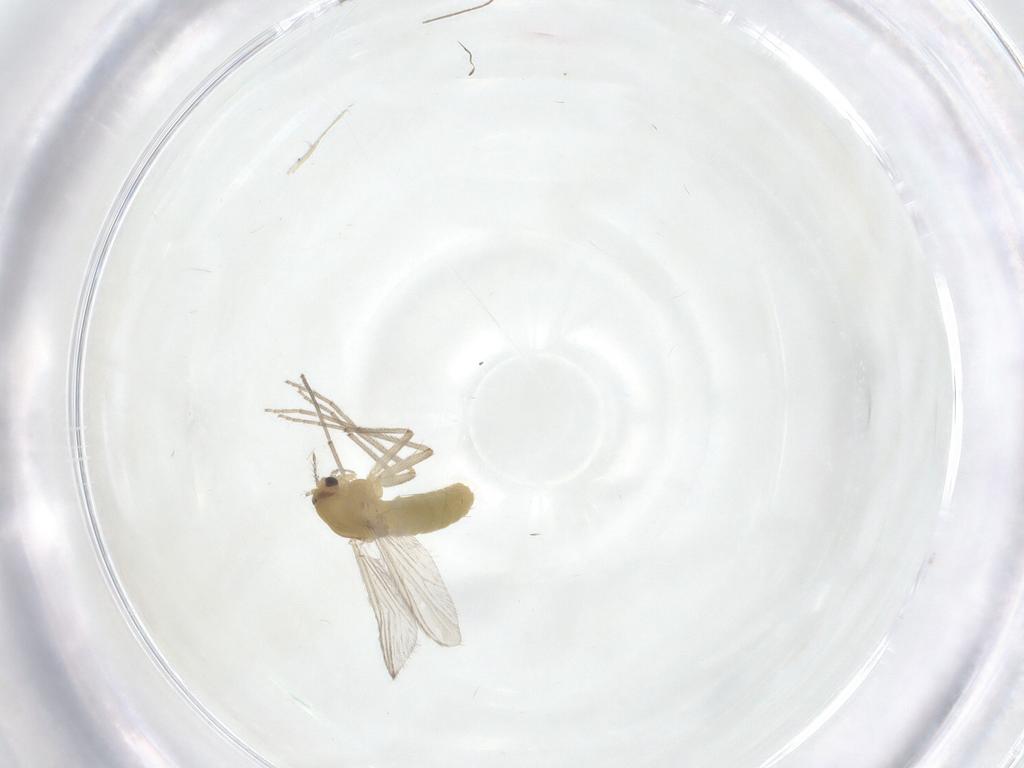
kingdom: Animalia
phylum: Arthropoda
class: Insecta
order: Diptera
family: Chironomidae
